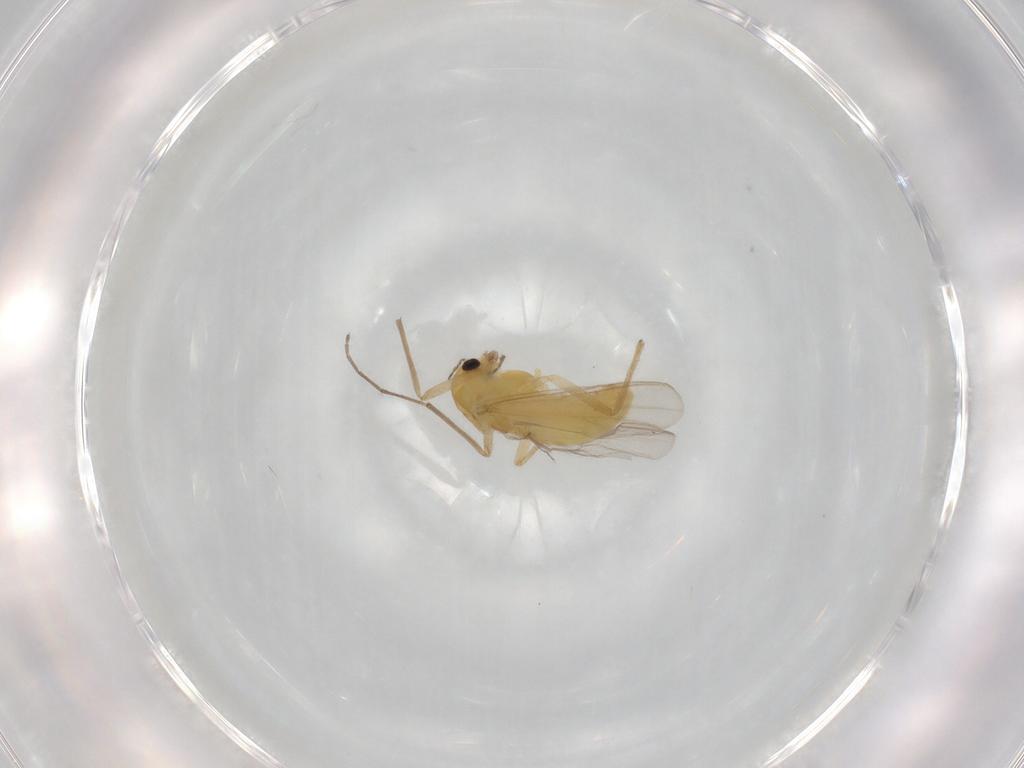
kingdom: Animalia
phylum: Arthropoda
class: Insecta
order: Diptera
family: Chironomidae
